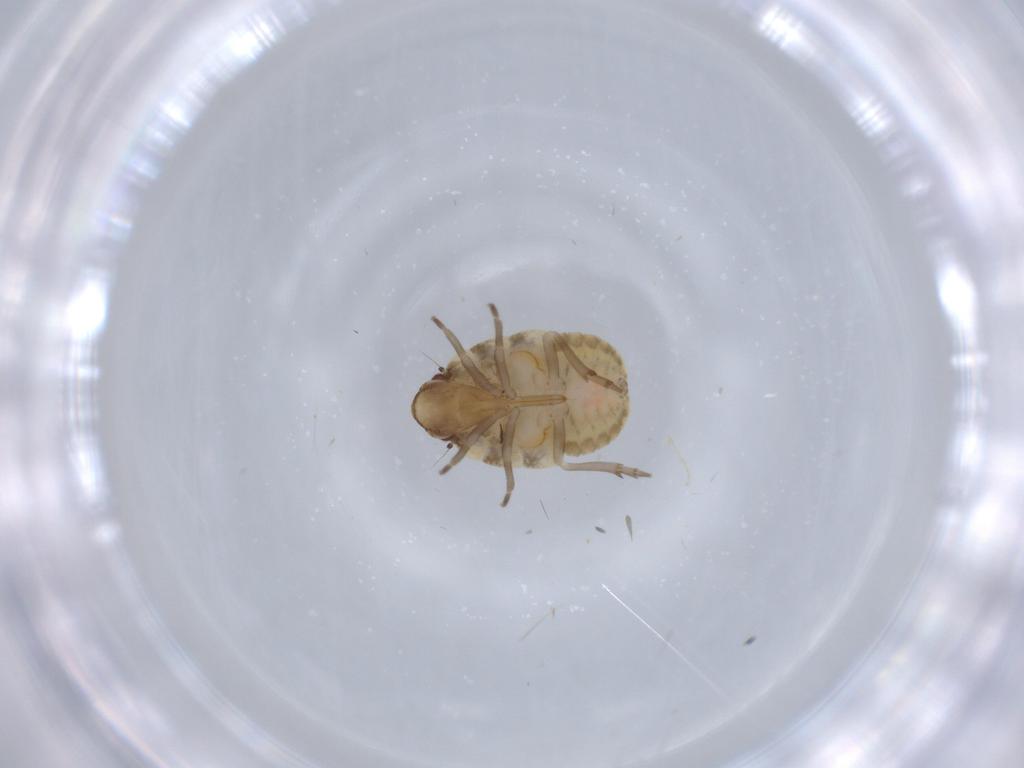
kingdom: Animalia
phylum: Arthropoda
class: Insecta
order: Hemiptera
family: Flatidae
